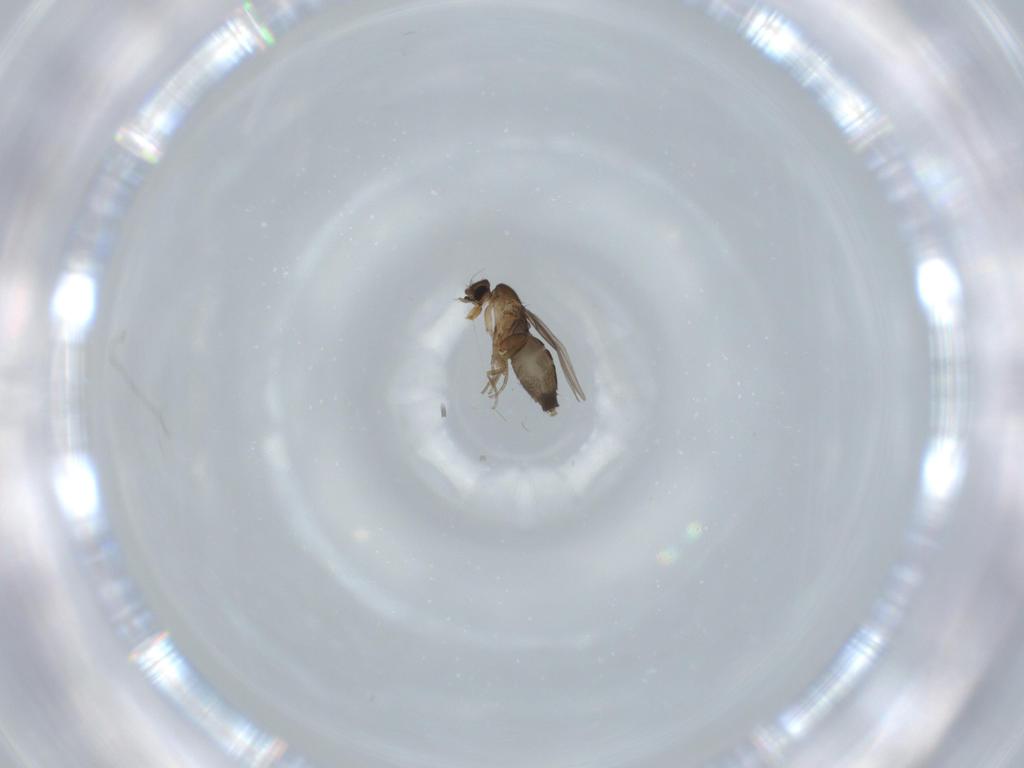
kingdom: Animalia
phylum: Arthropoda
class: Insecta
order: Diptera
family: Phoridae
